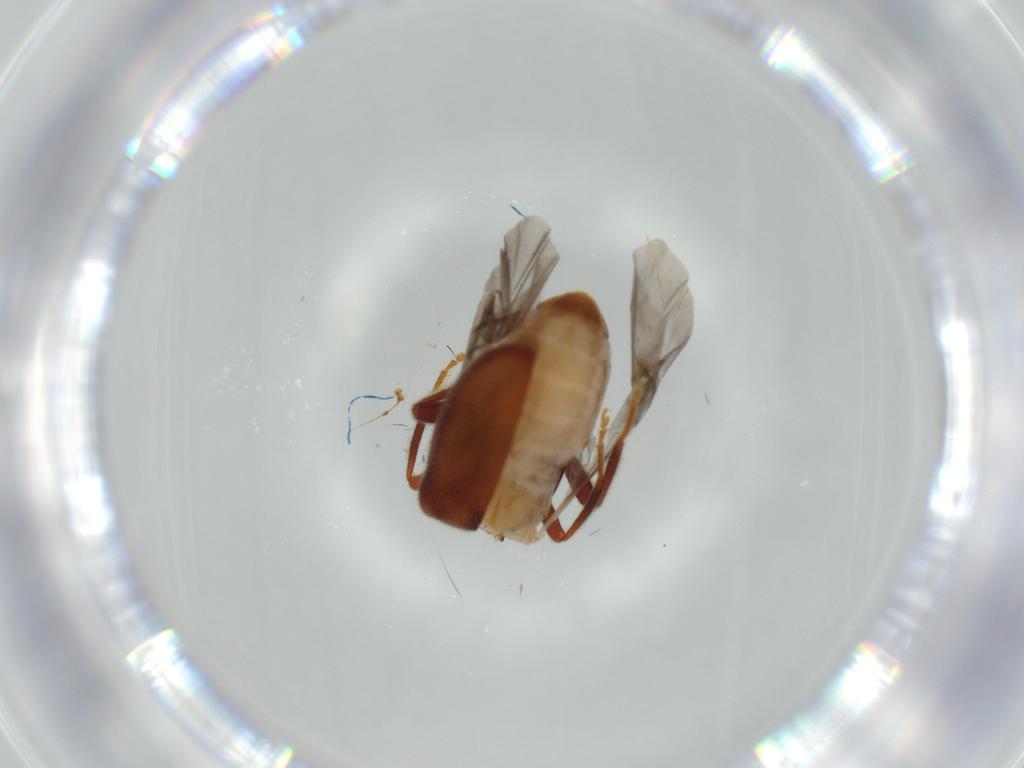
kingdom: Animalia
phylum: Arthropoda
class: Insecta
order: Coleoptera
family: Aderidae
